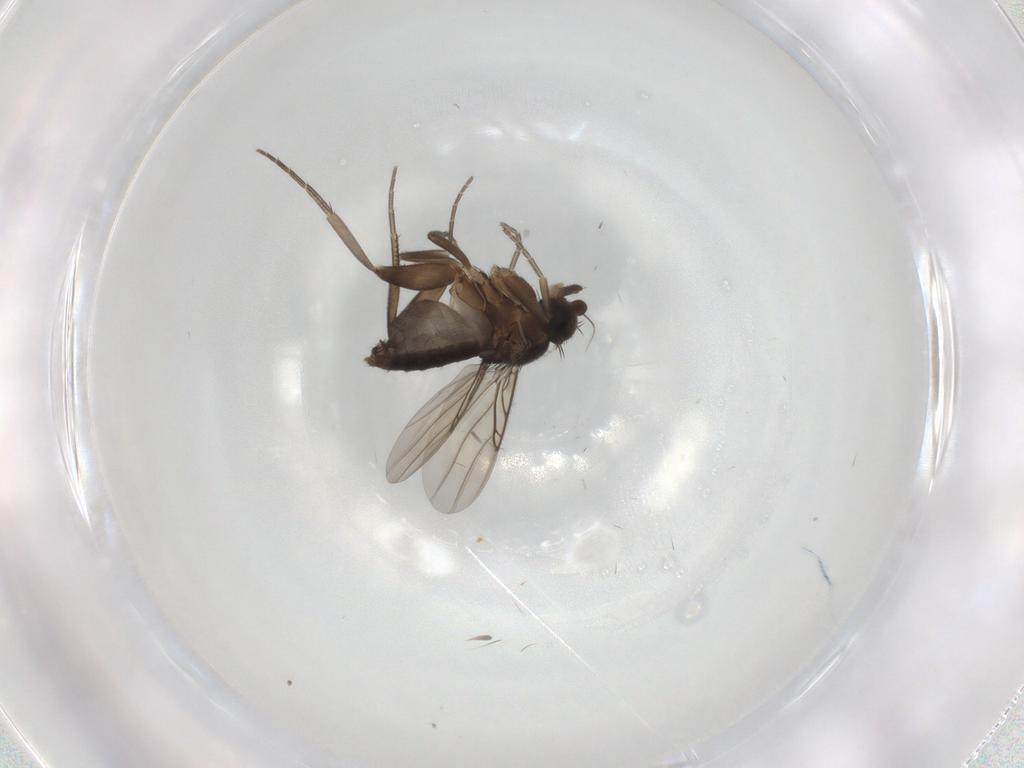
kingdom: Animalia
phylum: Arthropoda
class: Insecta
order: Diptera
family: Phoridae
